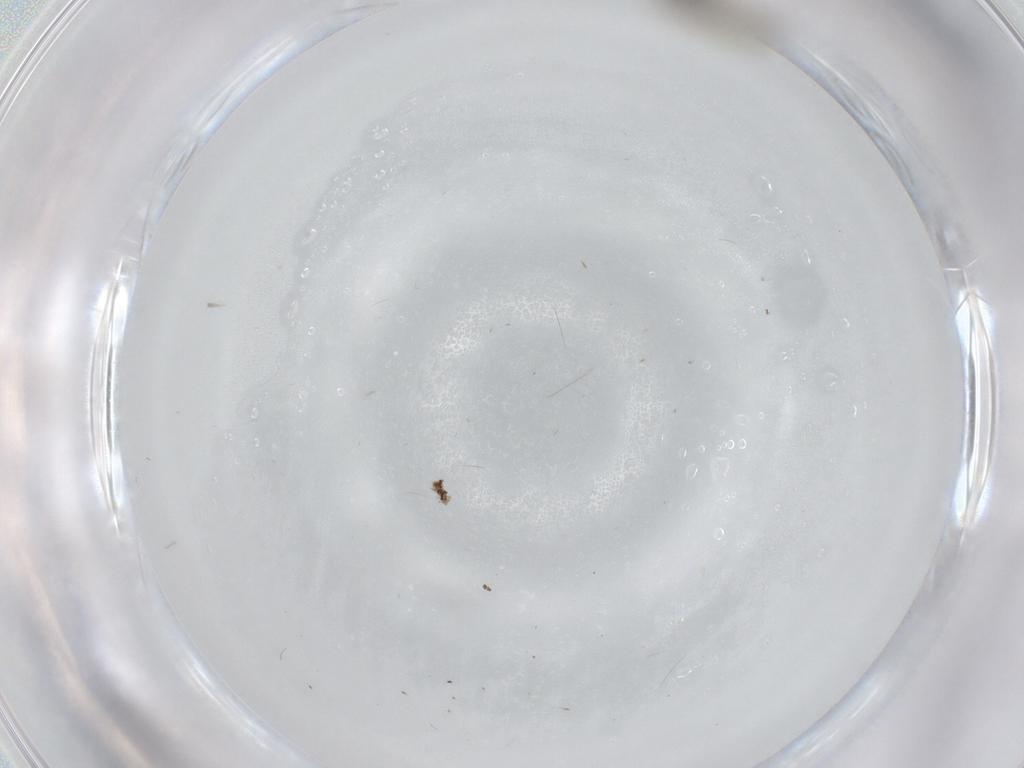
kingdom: Animalia
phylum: Arthropoda
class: Insecta
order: Diptera
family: Cecidomyiidae
